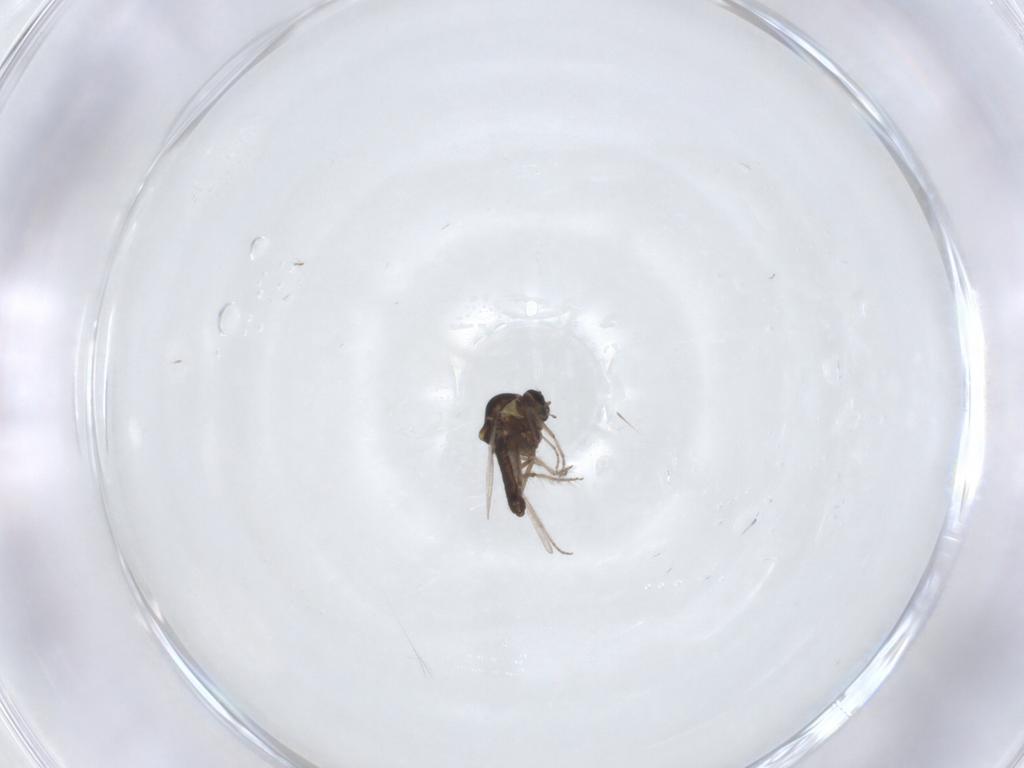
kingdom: Animalia
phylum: Arthropoda
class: Insecta
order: Diptera
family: Ceratopogonidae
